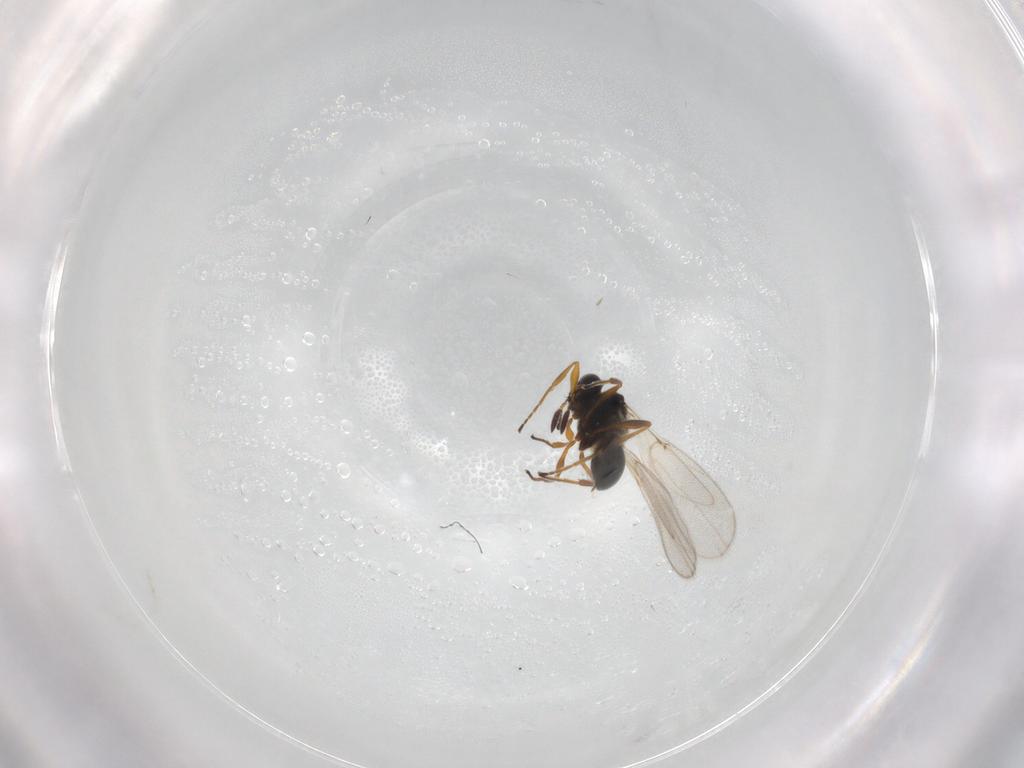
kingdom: Animalia
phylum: Arthropoda
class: Insecta
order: Hymenoptera
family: Platygastridae
